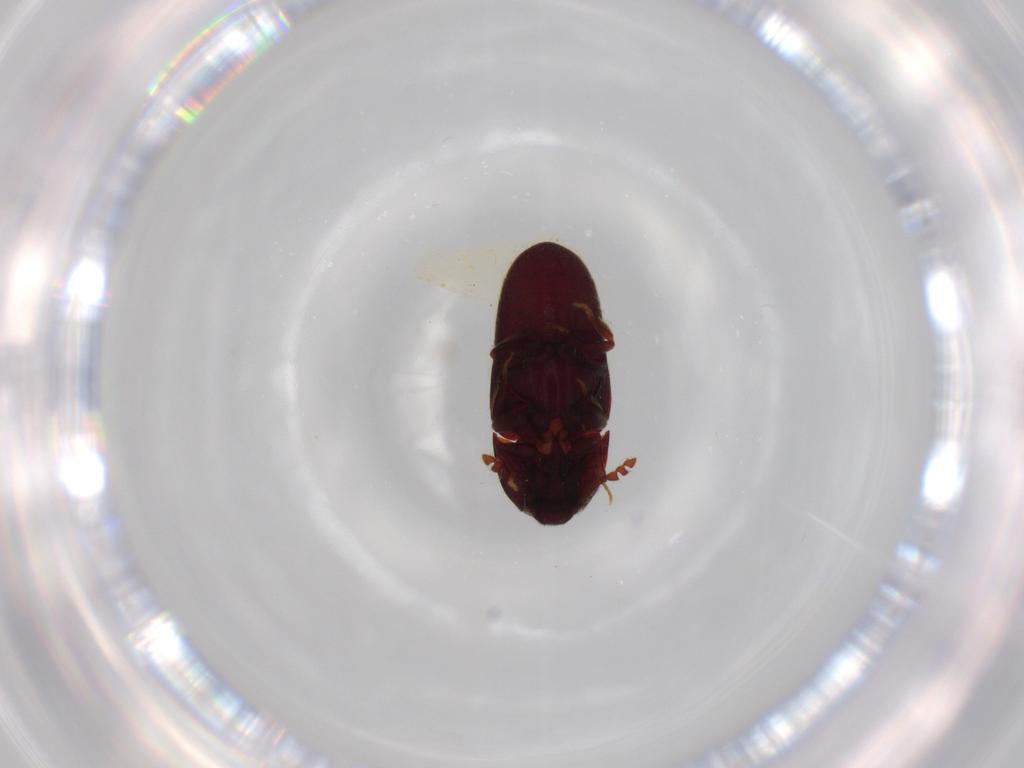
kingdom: Animalia
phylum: Arthropoda
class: Insecta
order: Coleoptera
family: Throscidae
